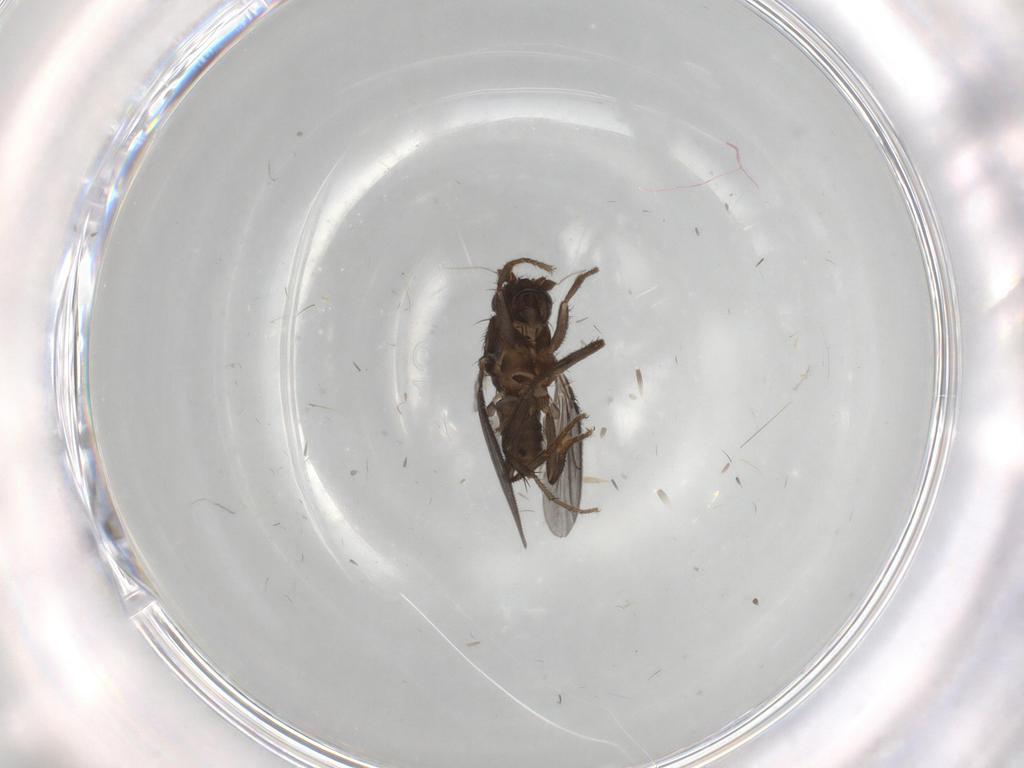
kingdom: Animalia
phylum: Arthropoda
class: Insecta
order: Diptera
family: Sphaeroceridae
